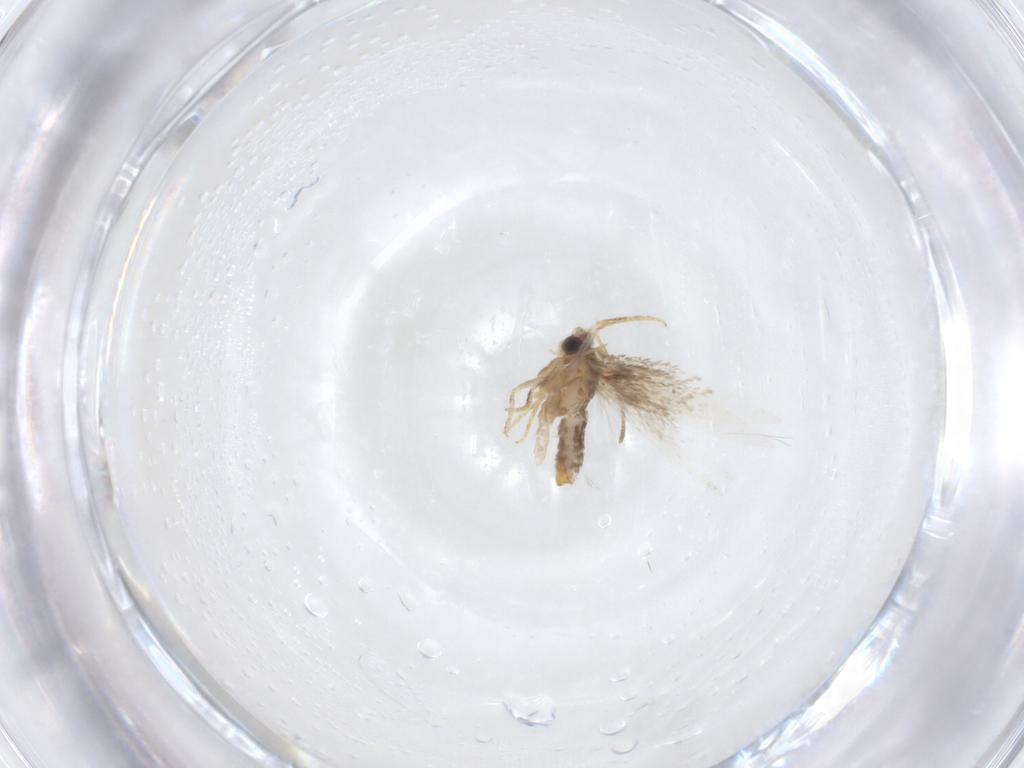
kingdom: Animalia
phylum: Arthropoda
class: Insecta
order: Lepidoptera
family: Nepticulidae
